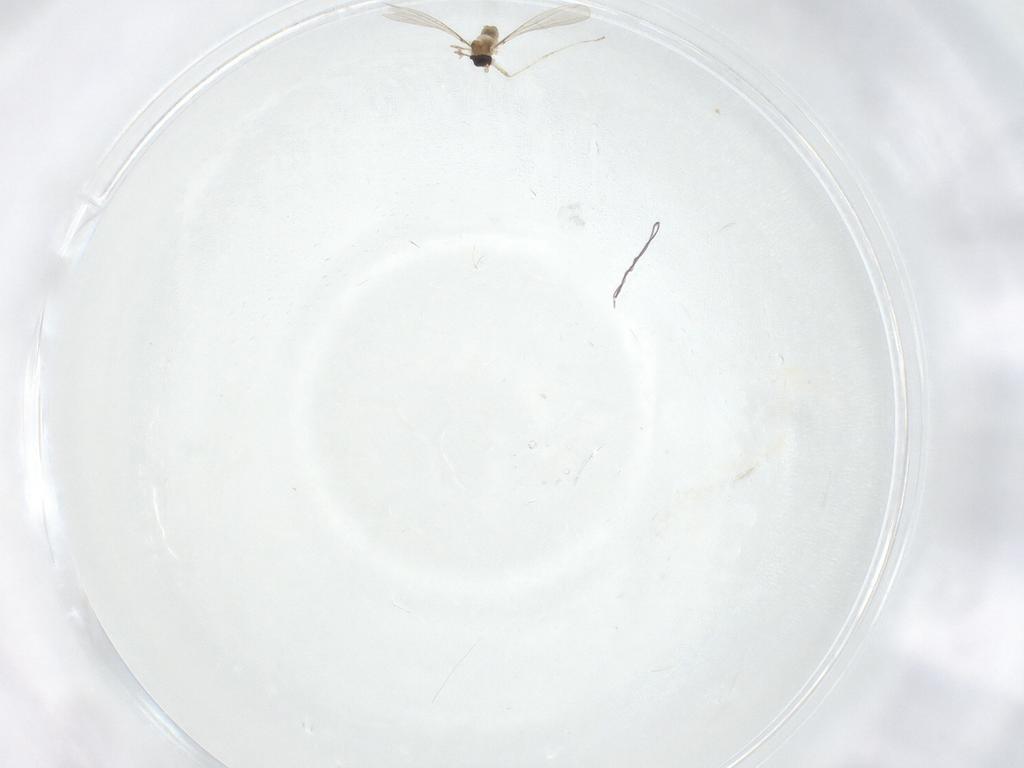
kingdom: Animalia
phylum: Arthropoda
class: Insecta
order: Diptera
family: Cecidomyiidae
